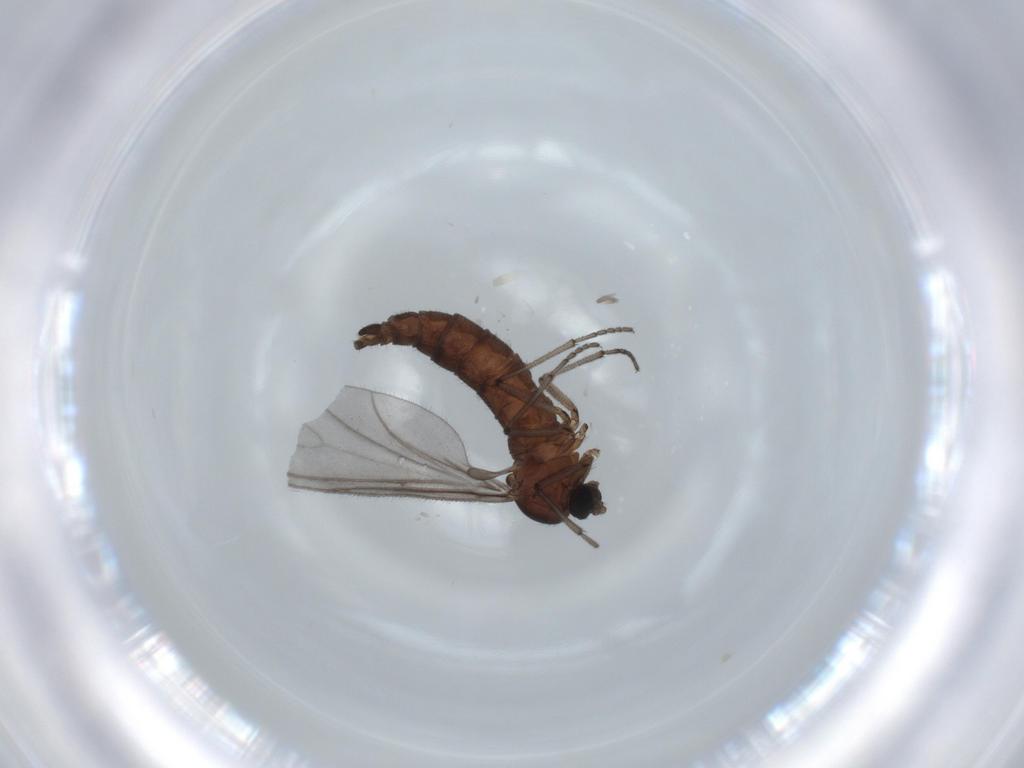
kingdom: Animalia
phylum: Arthropoda
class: Insecta
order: Diptera
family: Sciaridae
